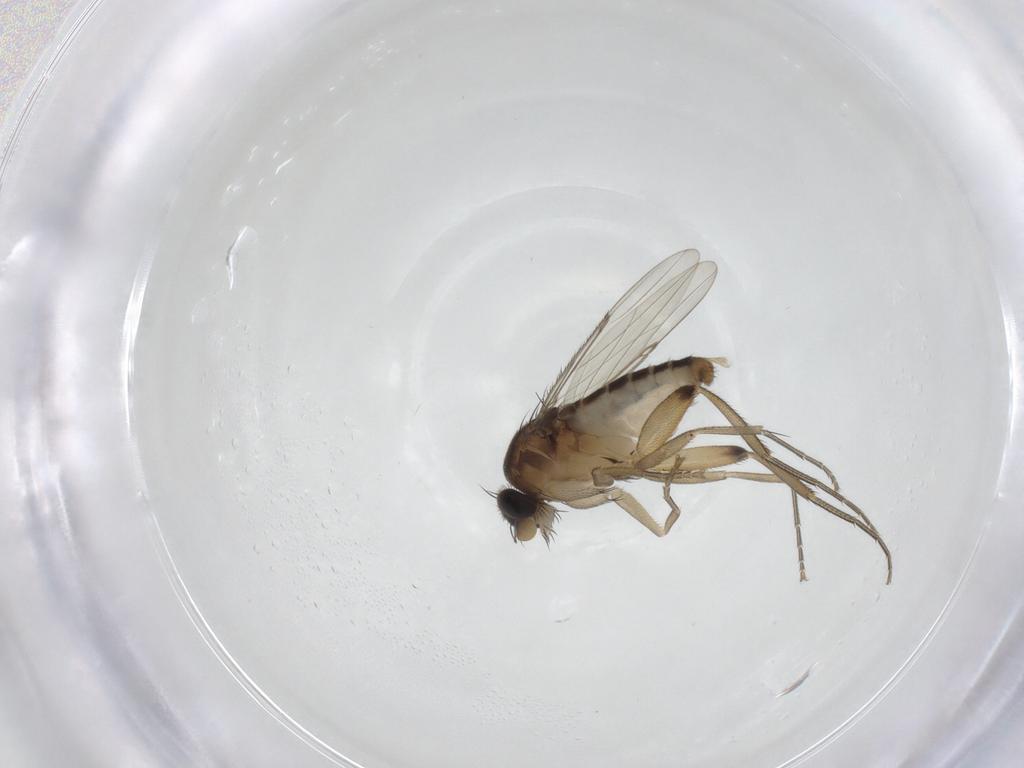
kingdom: Animalia
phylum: Arthropoda
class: Insecta
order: Diptera
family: Phoridae
